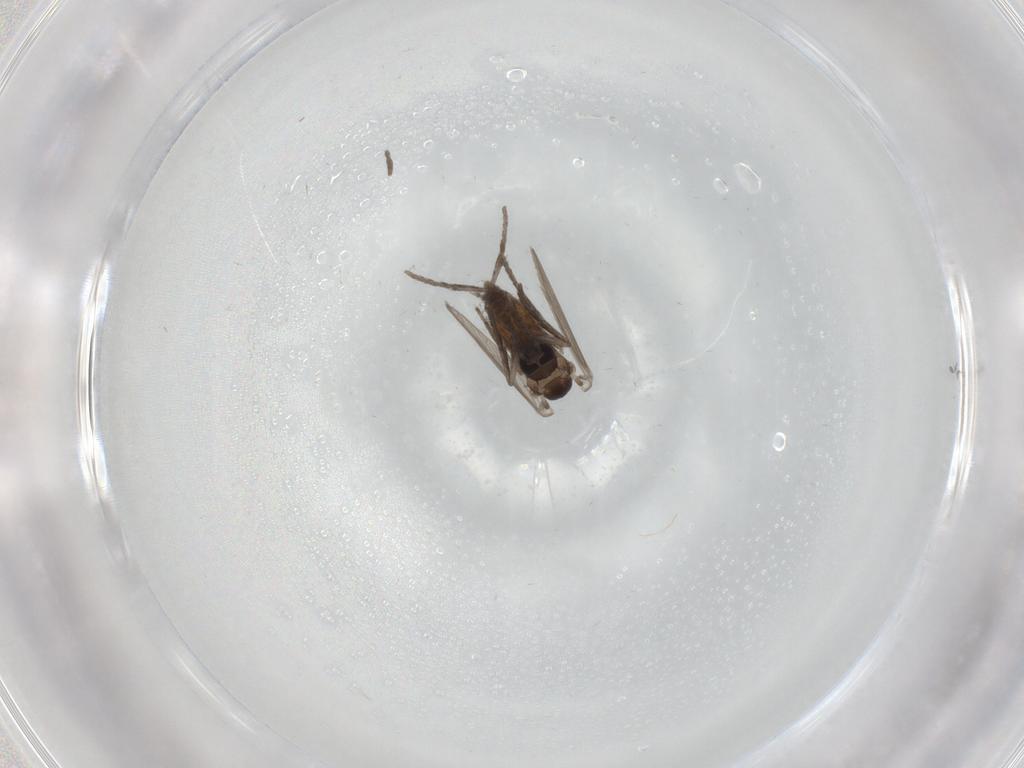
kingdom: Animalia
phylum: Arthropoda
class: Insecta
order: Diptera
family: Psychodidae
